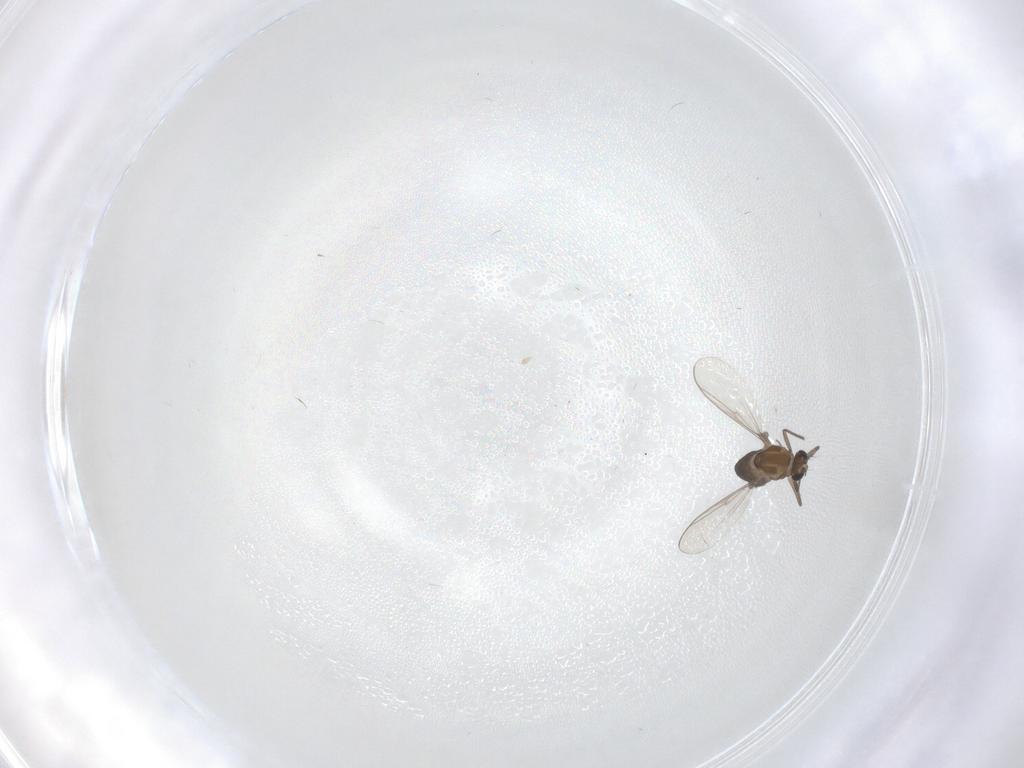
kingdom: Animalia
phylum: Arthropoda
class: Insecta
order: Diptera
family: Chironomidae
